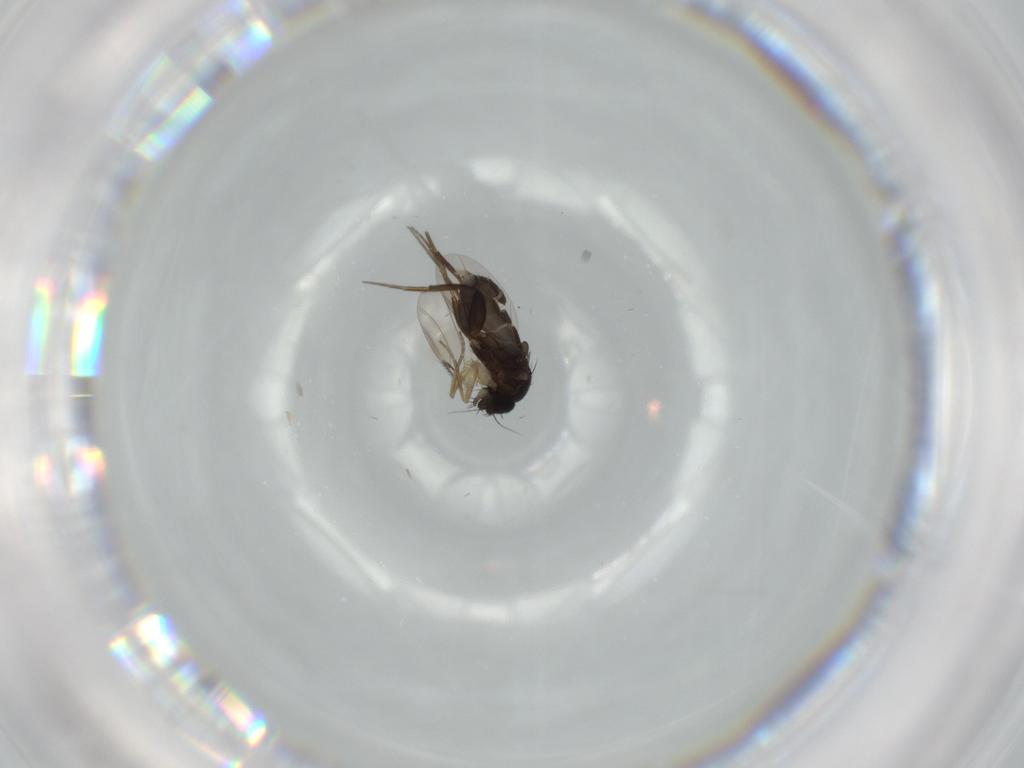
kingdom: Animalia
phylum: Arthropoda
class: Insecta
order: Diptera
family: Phoridae
